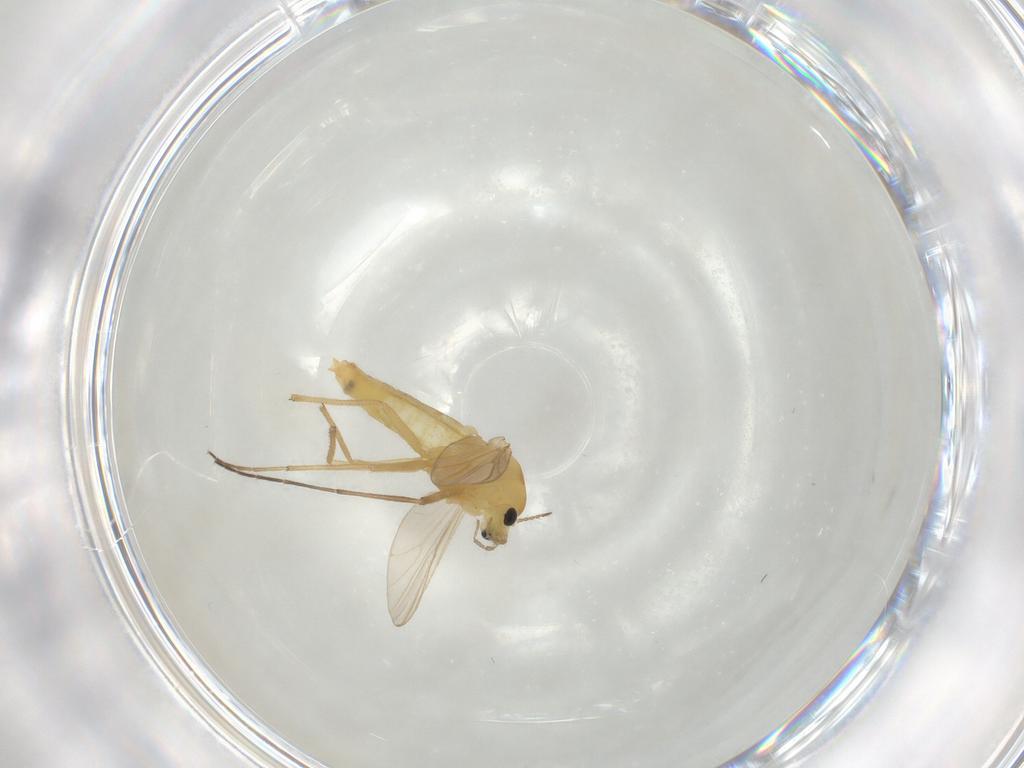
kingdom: Animalia
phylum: Arthropoda
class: Insecta
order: Diptera
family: Chironomidae
